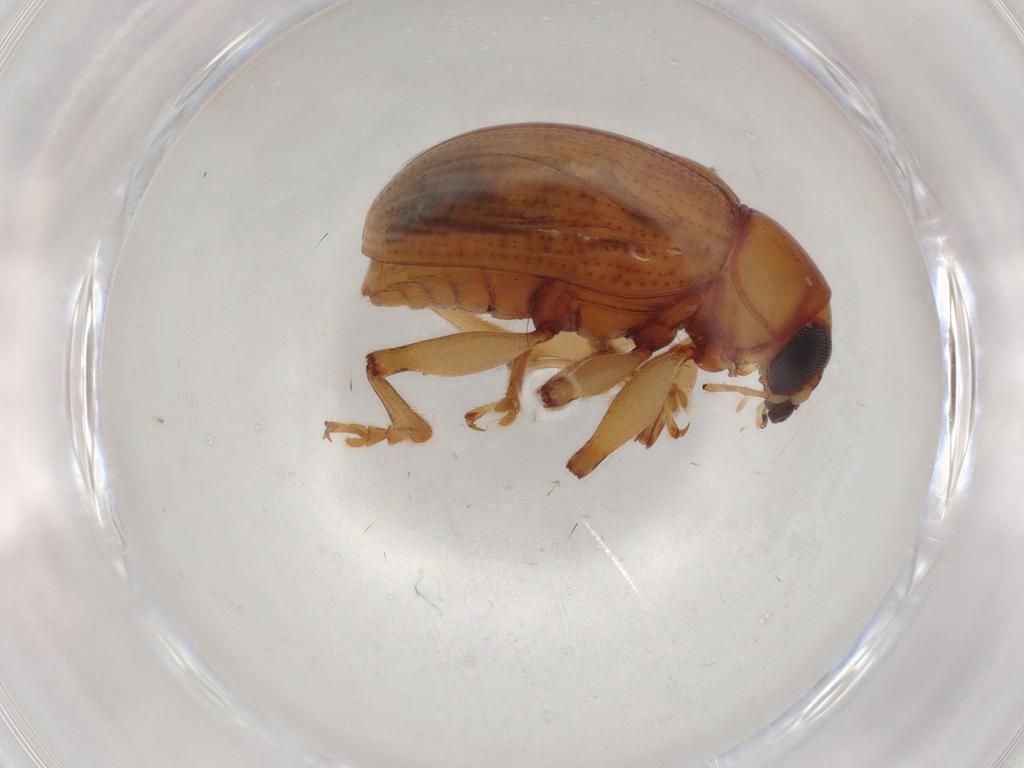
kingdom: Animalia
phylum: Arthropoda
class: Insecta
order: Coleoptera
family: Chrysomelidae
